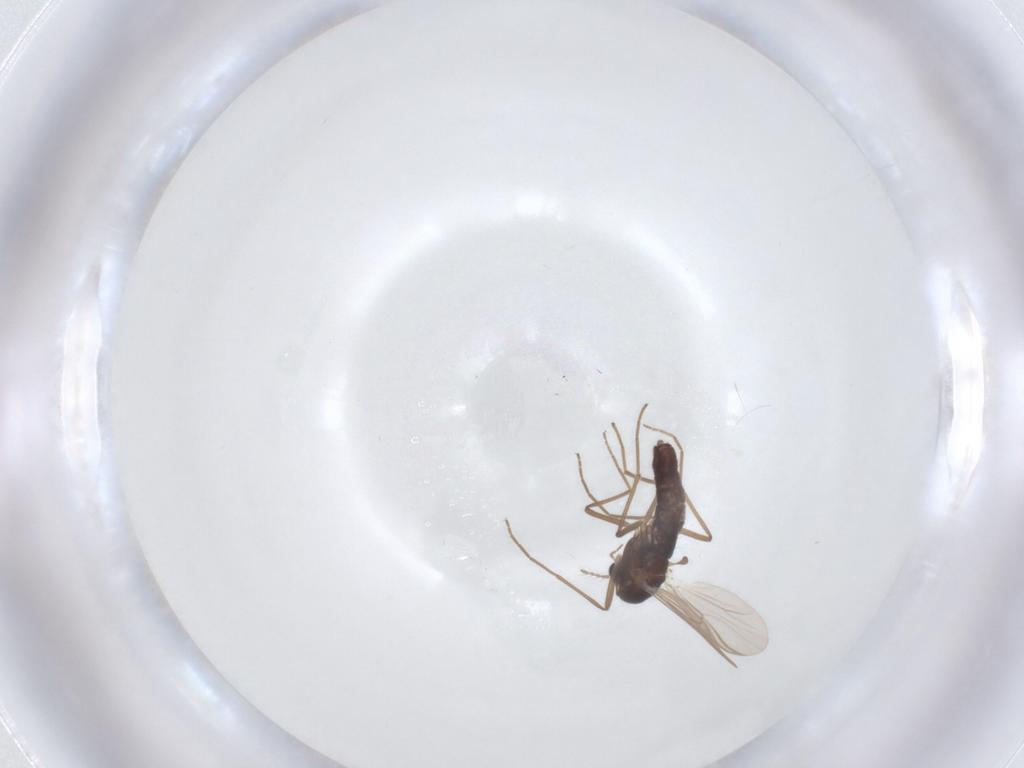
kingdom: Animalia
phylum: Arthropoda
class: Insecta
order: Diptera
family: Chironomidae
